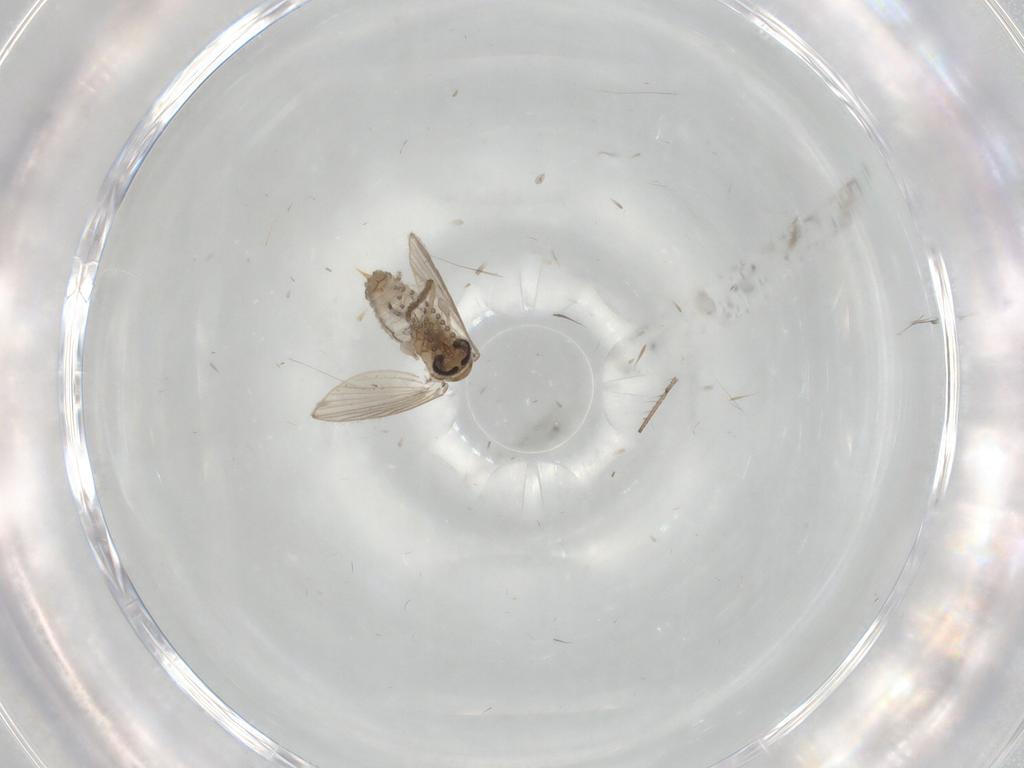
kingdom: Animalia
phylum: Arthropoda
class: Insecta
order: Diptera
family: Psychodidae
